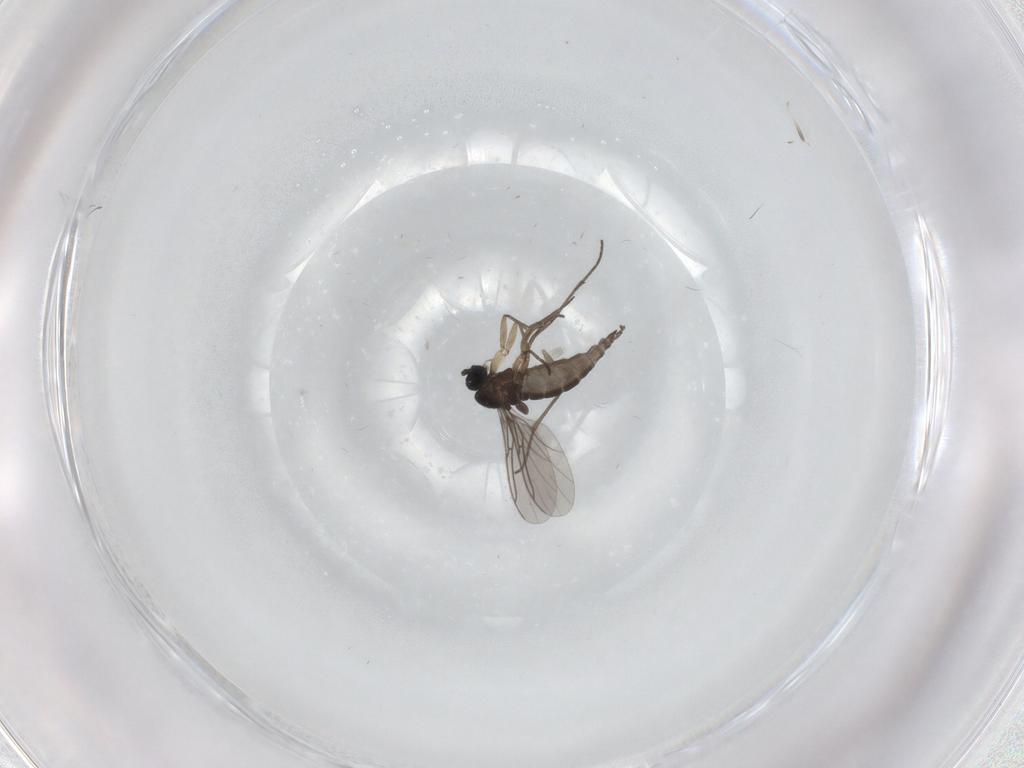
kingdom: Animalia
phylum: Arthropoda
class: Insecta
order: Diptera
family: Sciaridae
